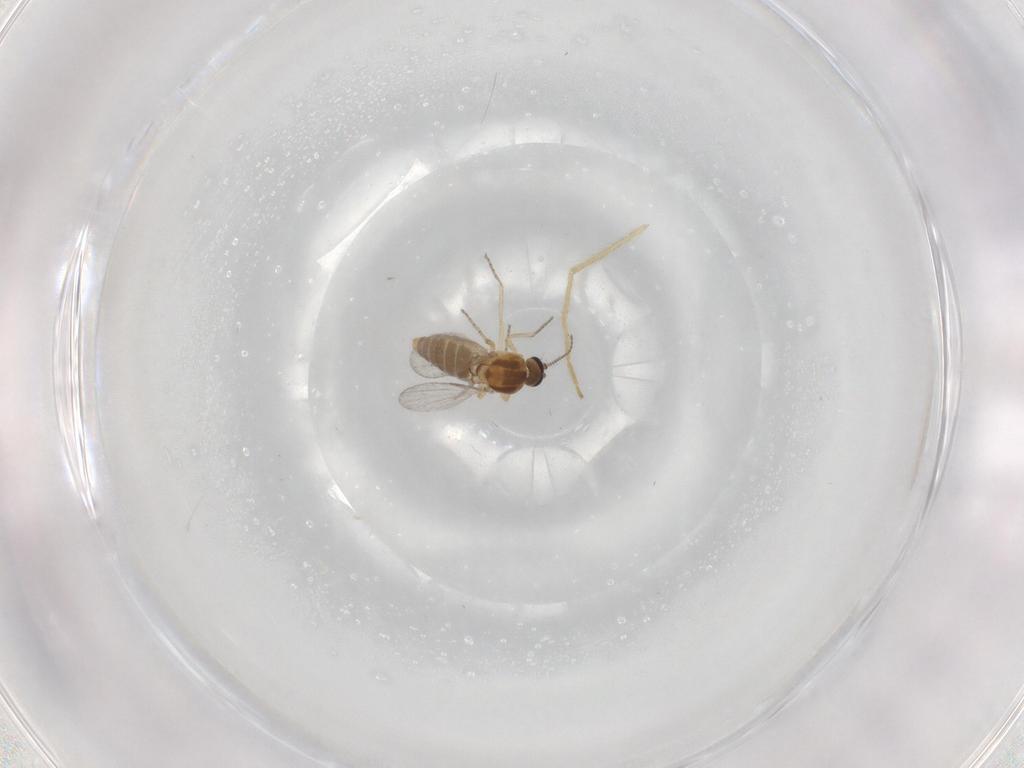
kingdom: Animalia
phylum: Arthropoda
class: Insecta
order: Diptera
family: Ceratopogonidae
